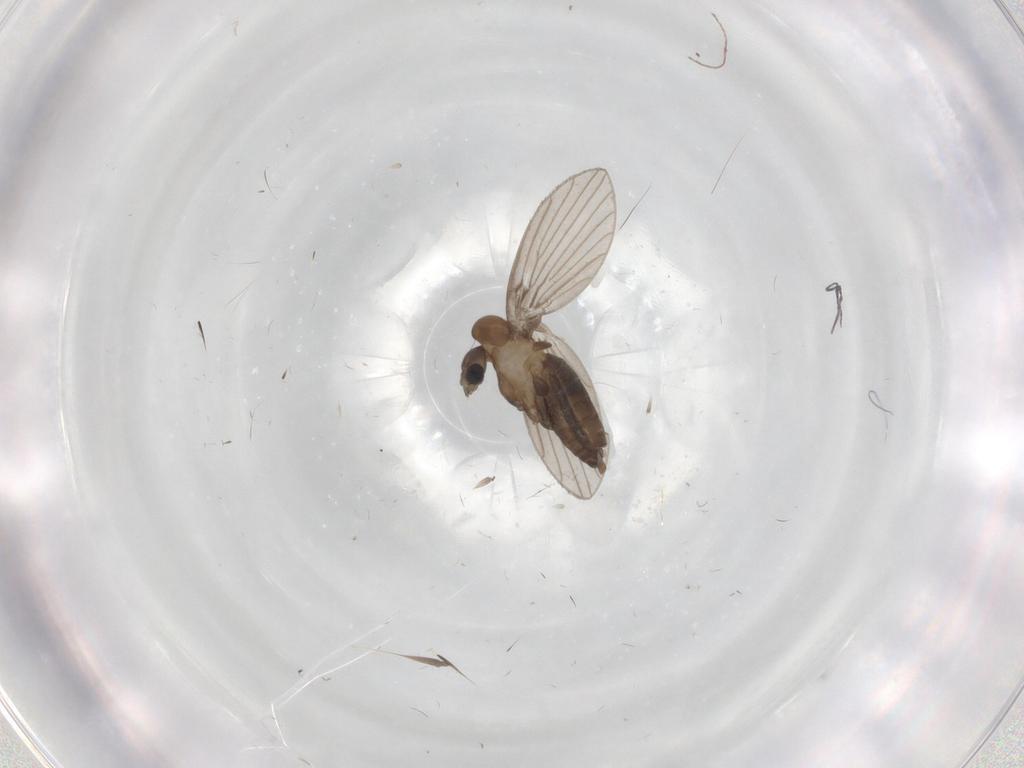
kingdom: Animalia
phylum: Arthropoda
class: Insecta
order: Diptera
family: Psychodidae
